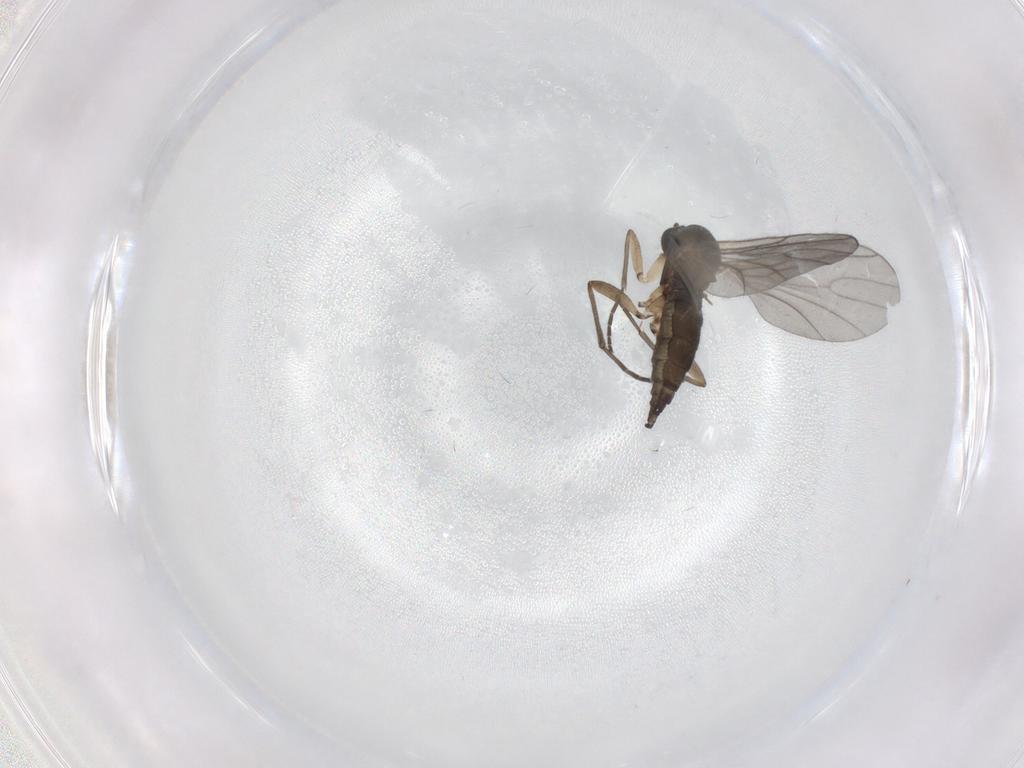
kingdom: Animalia
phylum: Arthropoda
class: Insecta
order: Diptera
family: Sciaridae
